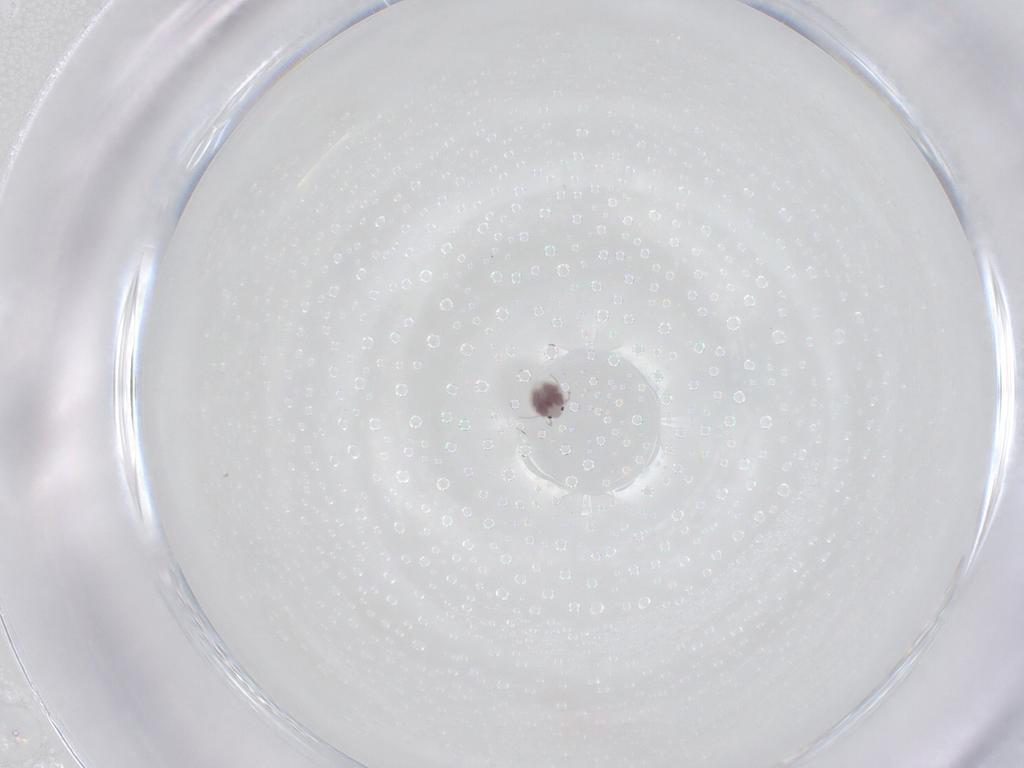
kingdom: Animalia
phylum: Arthropoda
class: Arachnida
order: Trombidiformes
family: Pionidae
